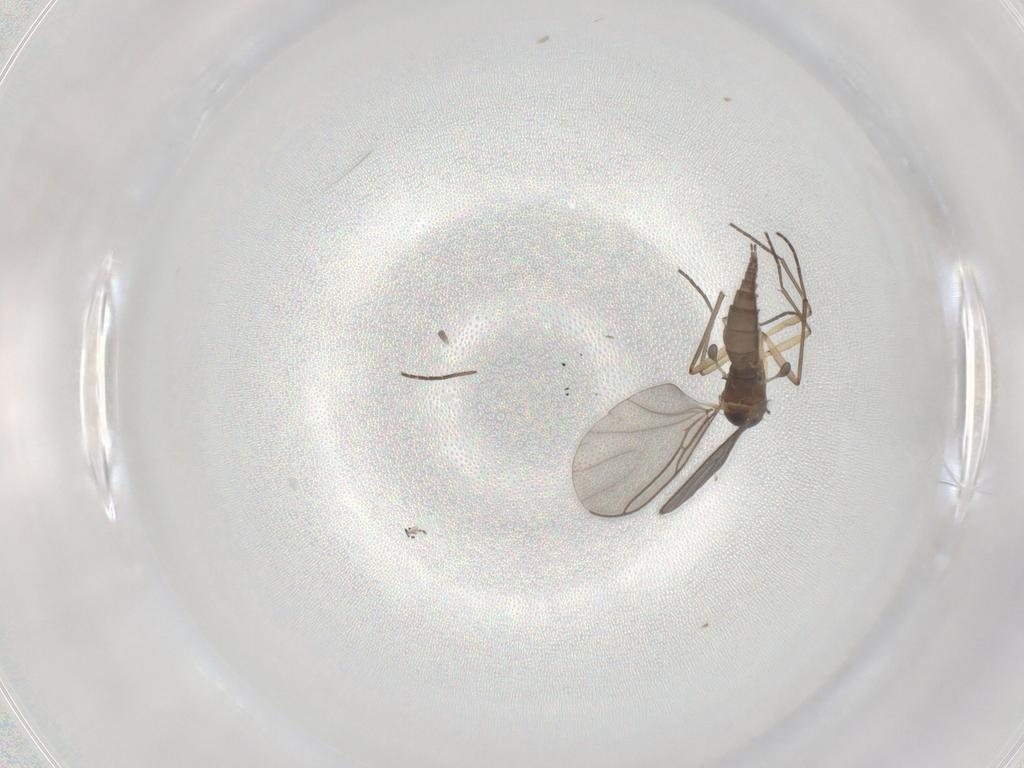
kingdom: Animalia
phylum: Arthropoda
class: Insecta
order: Diptera
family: Sciaridae
